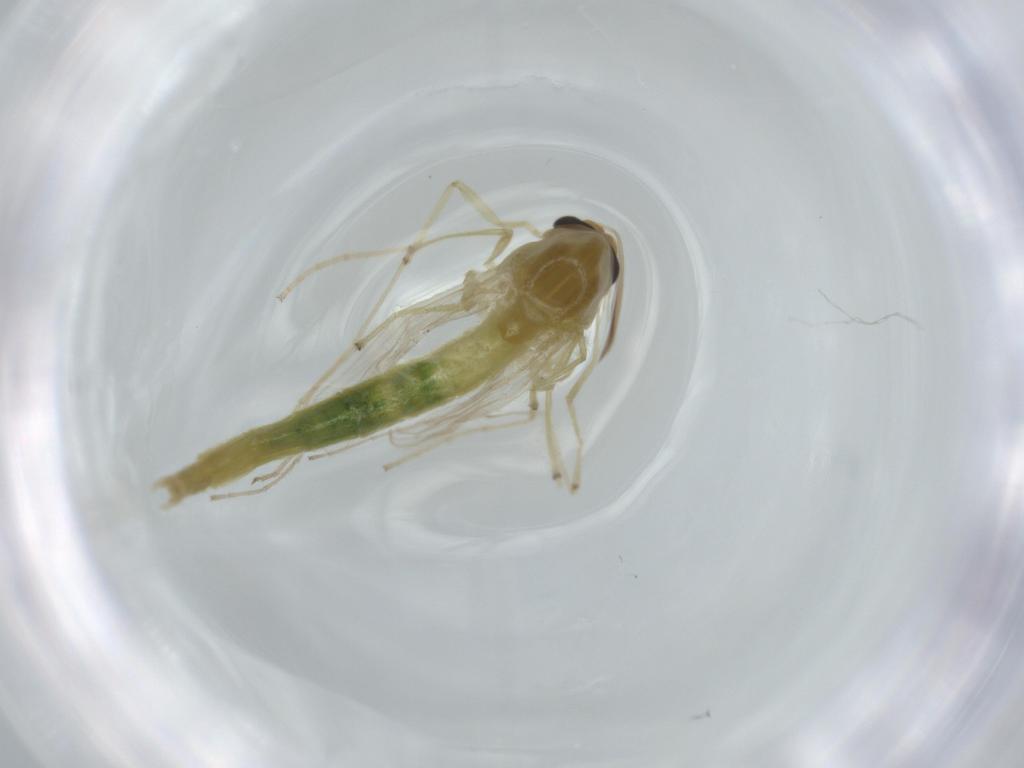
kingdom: Animalia
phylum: Arthropoda
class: Insecta
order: Diptera
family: Chironomidae
